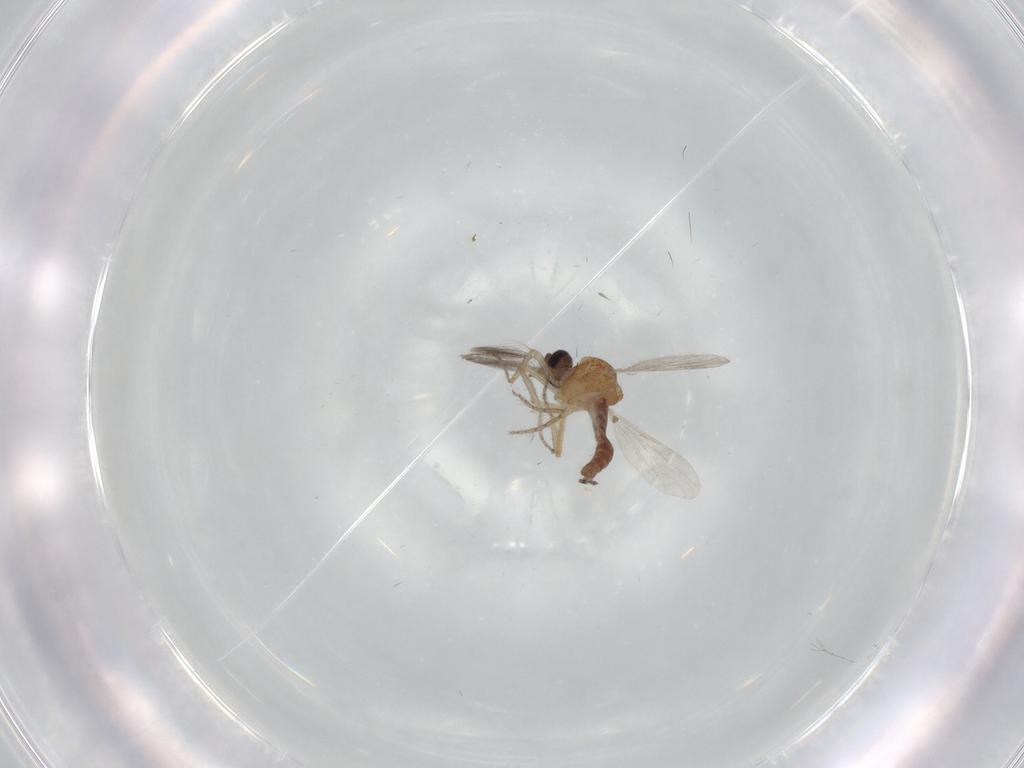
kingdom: Animalia
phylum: Arthropoda
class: Insecta
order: Diptera
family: Ceratopogonidae
